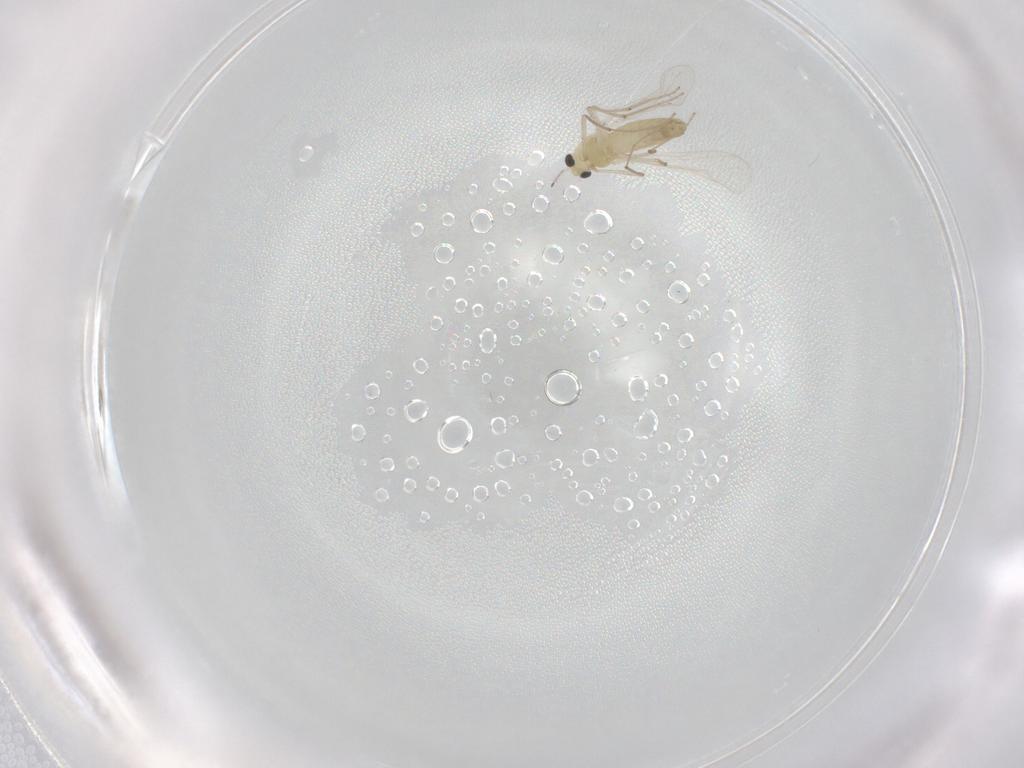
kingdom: Animalia
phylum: Arthropoda
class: Insecta
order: Diptera
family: Chironomidae
